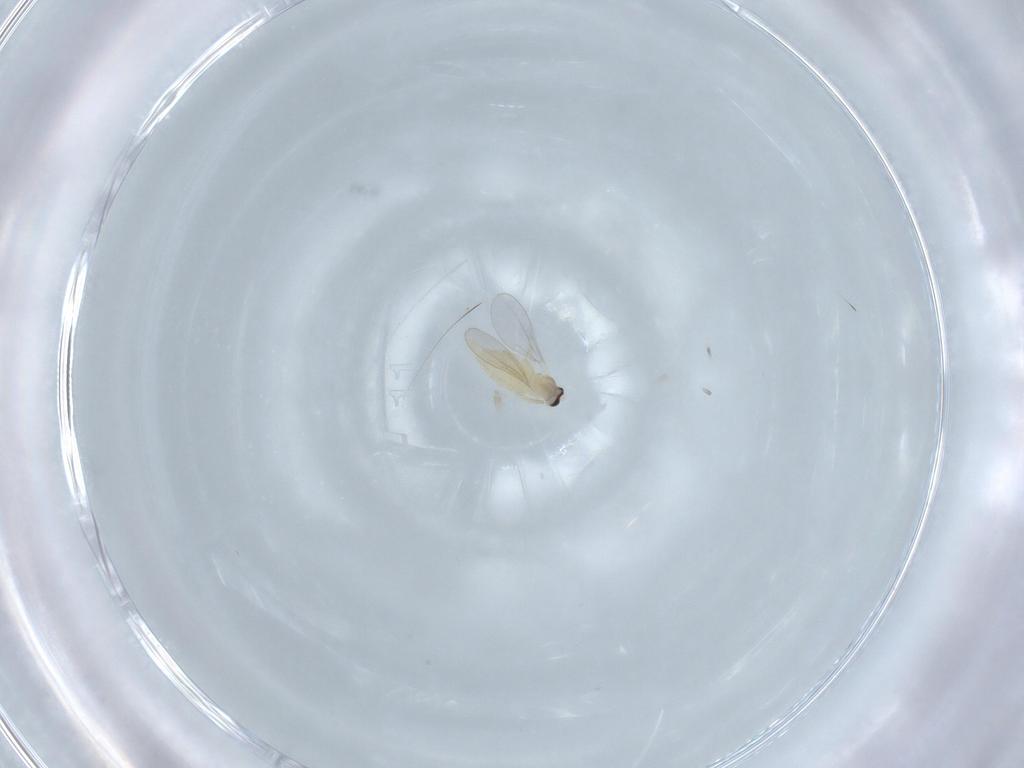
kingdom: Animalia
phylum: Arthropoda
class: Insecta
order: Diptera
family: Cecidomyiidae
